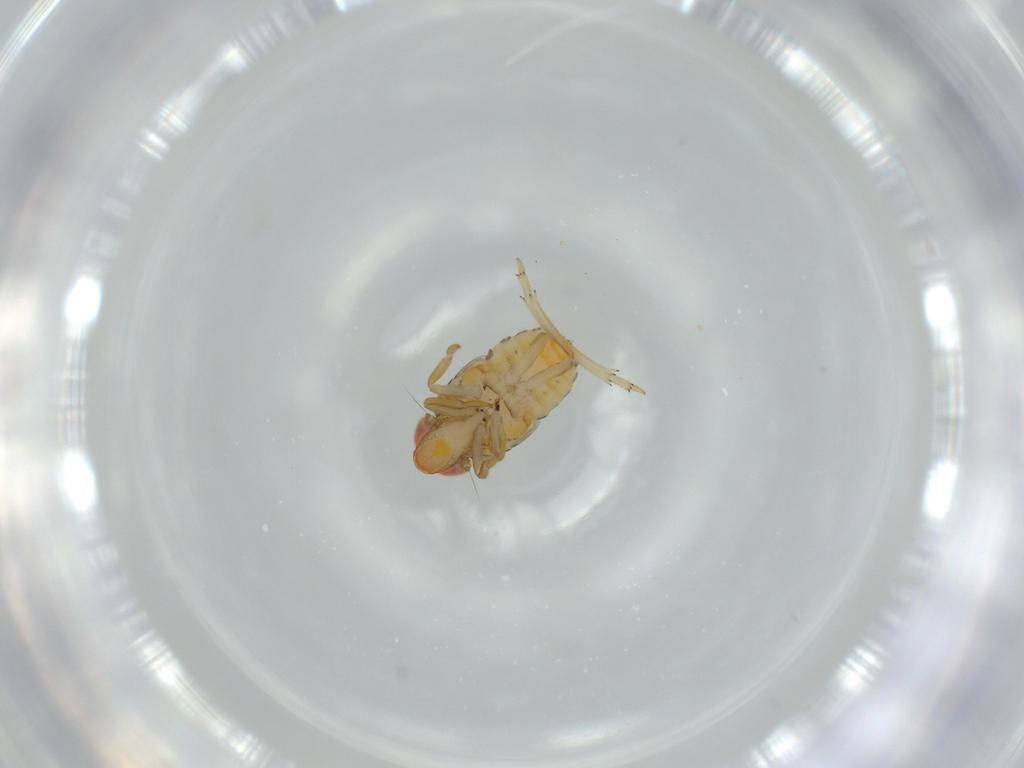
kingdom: Animalia
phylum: Arthropoda
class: Insecta
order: Hemiptera
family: Fulgoroidea_incertae_sedis
